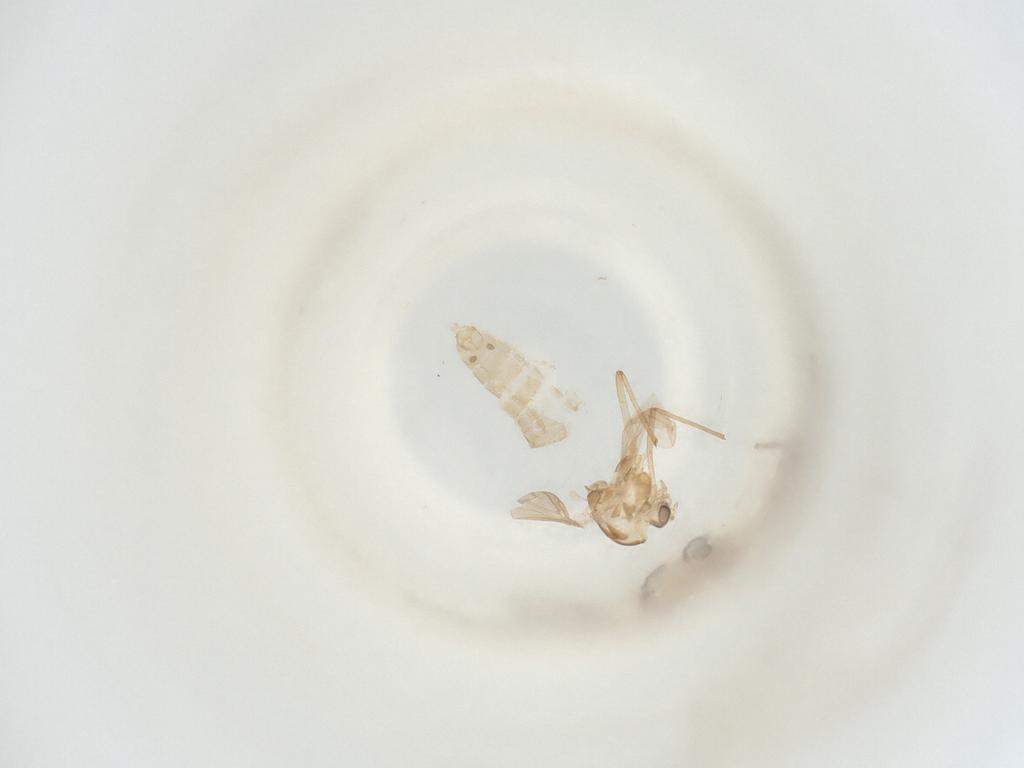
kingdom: Animalia
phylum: Arthropoda
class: Insecta
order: Diptera
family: Chironomidae
